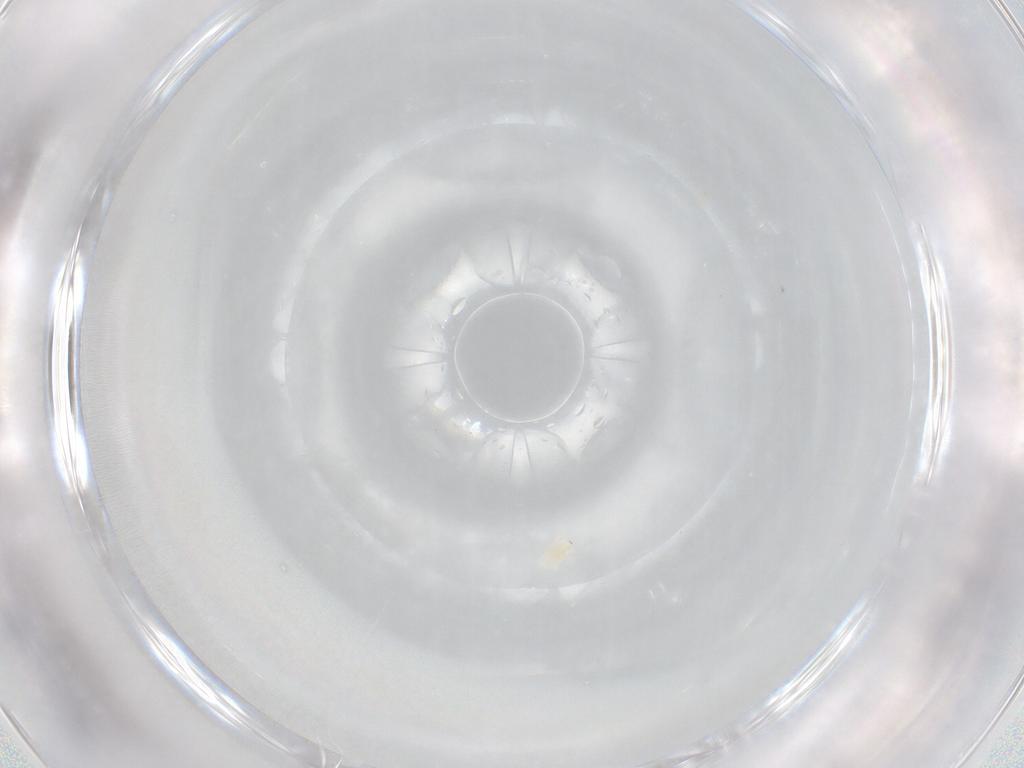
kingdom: Animalia
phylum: Arthropoda
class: Arachnida
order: Trombidiformes
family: Bdellidae
